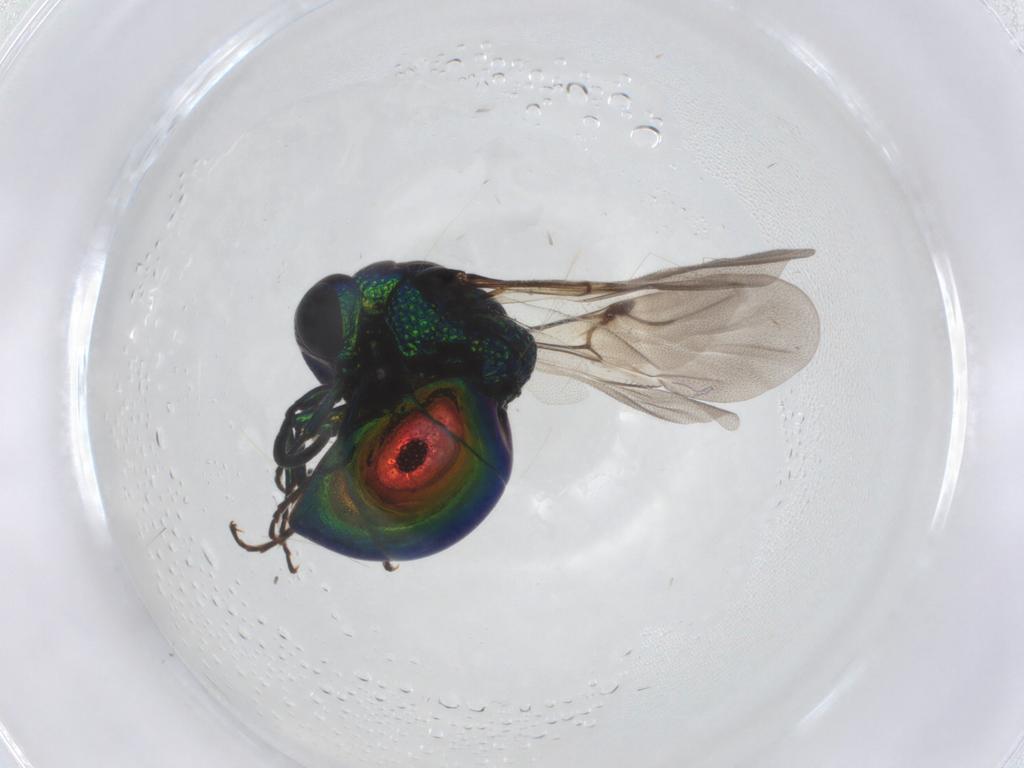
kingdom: Animalia
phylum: Arthropoda
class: Insecta
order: Hymenoptera
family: Chrysididae
